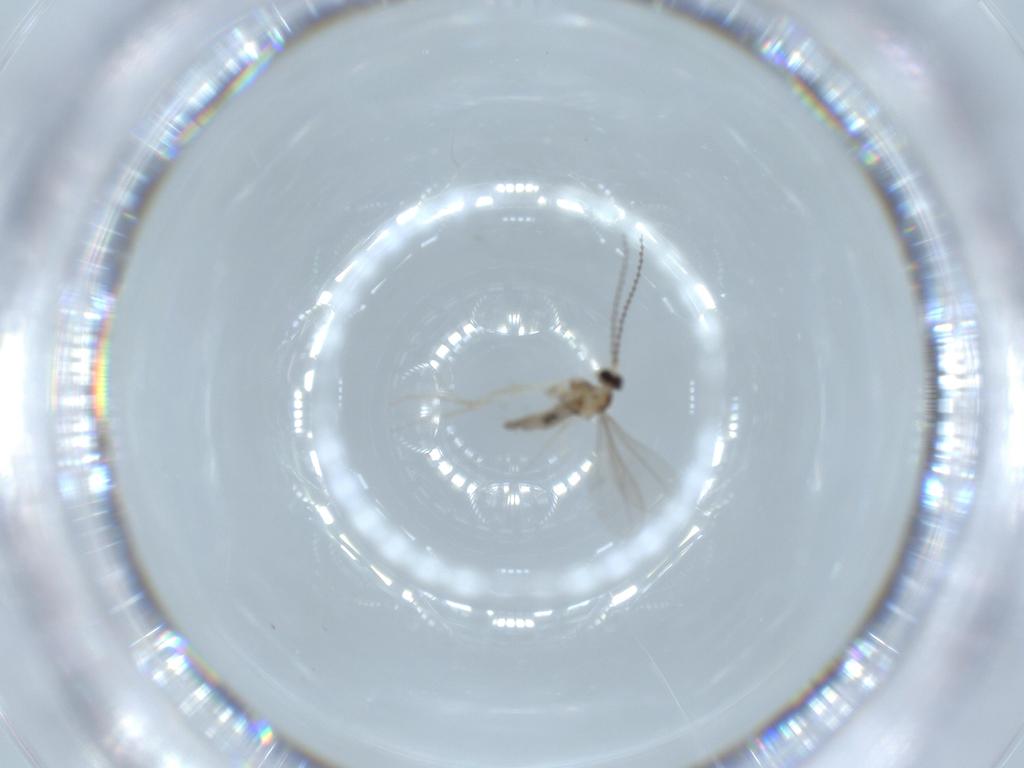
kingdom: Animalia
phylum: Arthropoda
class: Insecta
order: Diptera
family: Cecidomyiidae
